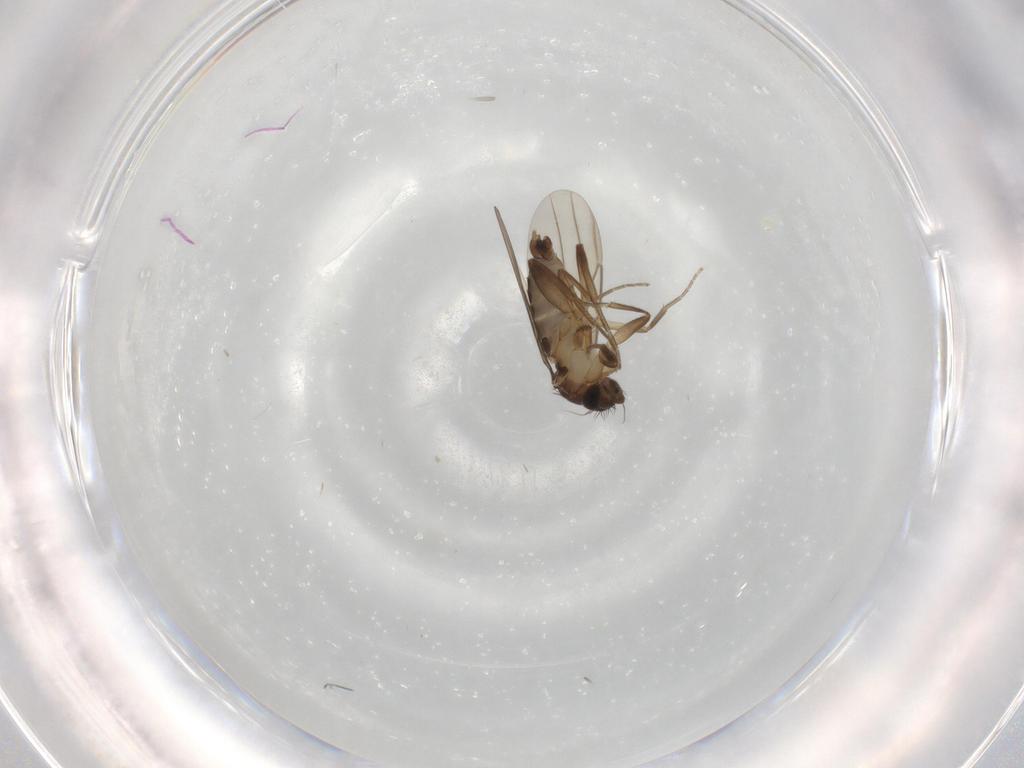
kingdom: Animalia
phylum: Arthropoda
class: Insecta
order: Diptera
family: Phoridae
